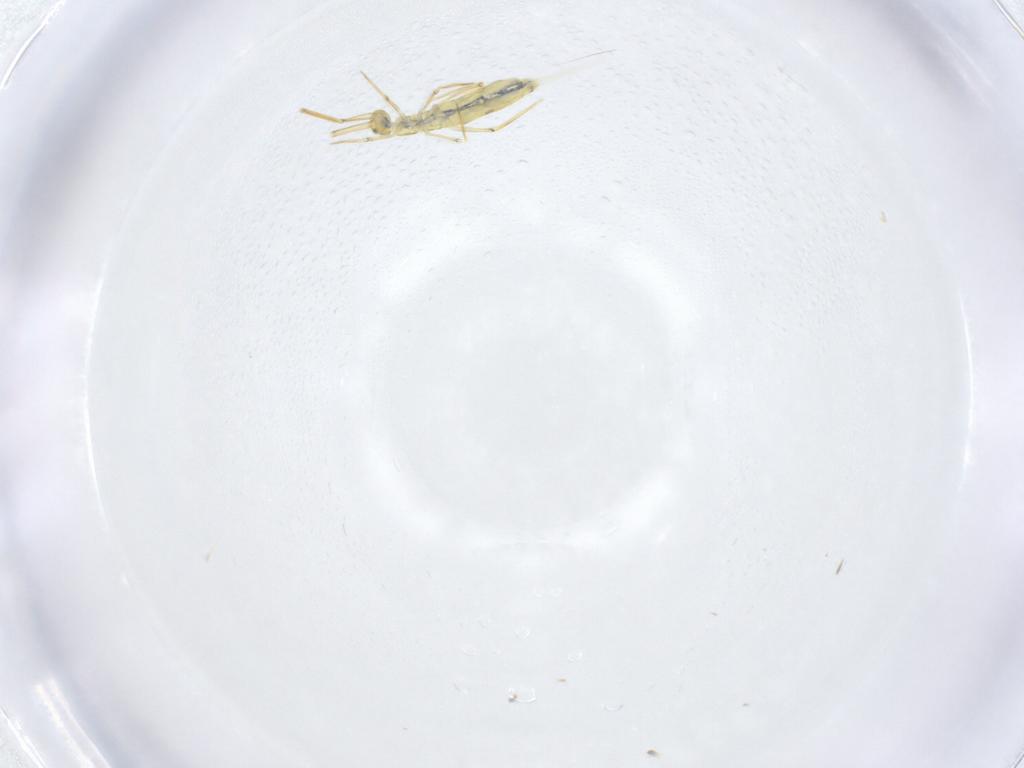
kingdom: Animalia
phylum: Arthropoda
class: Collembola
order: Entomobryomorpha
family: Entomobryidae
